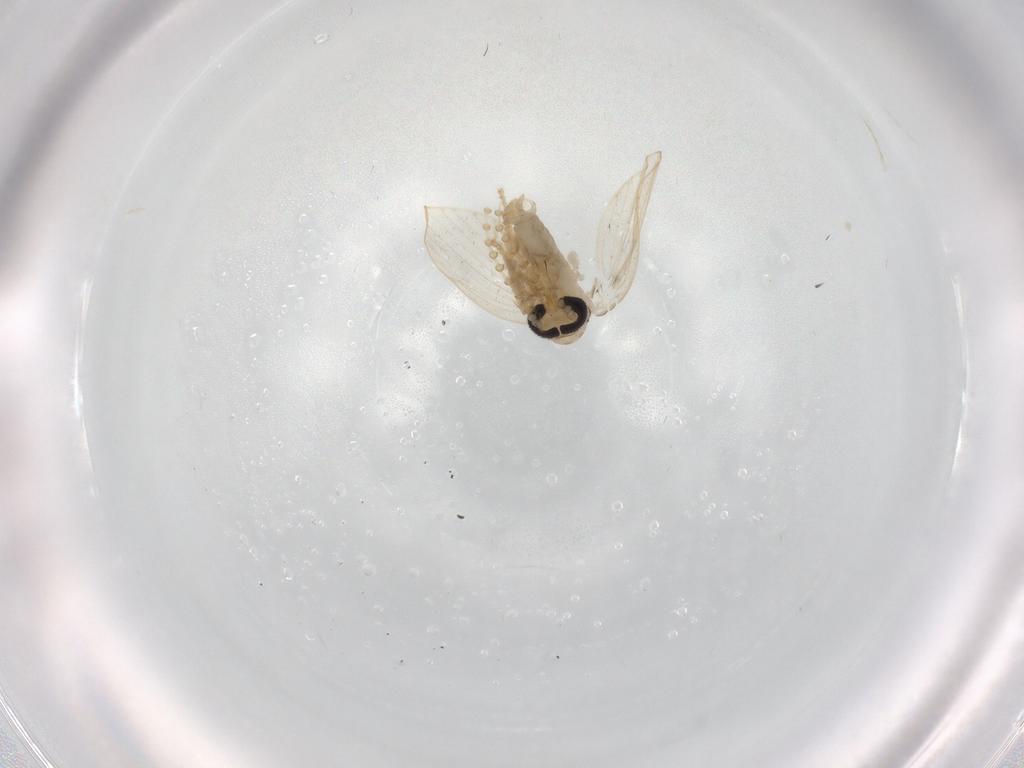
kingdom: Animalia
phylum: Arthropoda
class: Insecta
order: Diptera
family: Psychodidae
